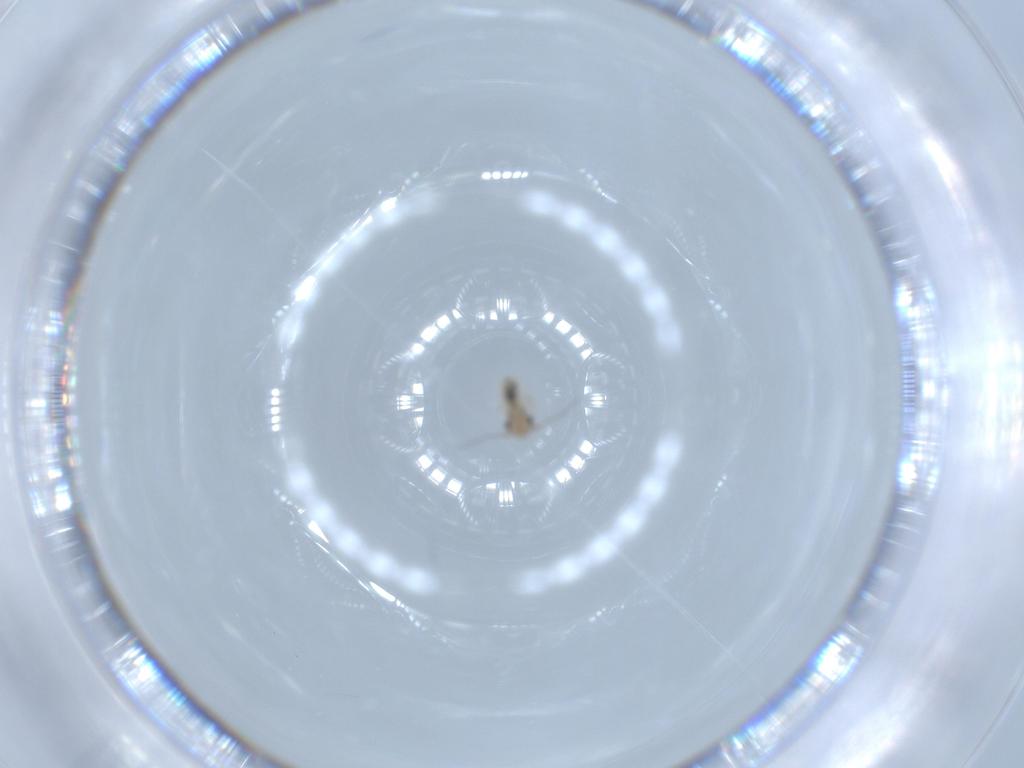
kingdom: Animalia
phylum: Arthropoda
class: Insecta
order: Psocodea
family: Lepidopsocidae
